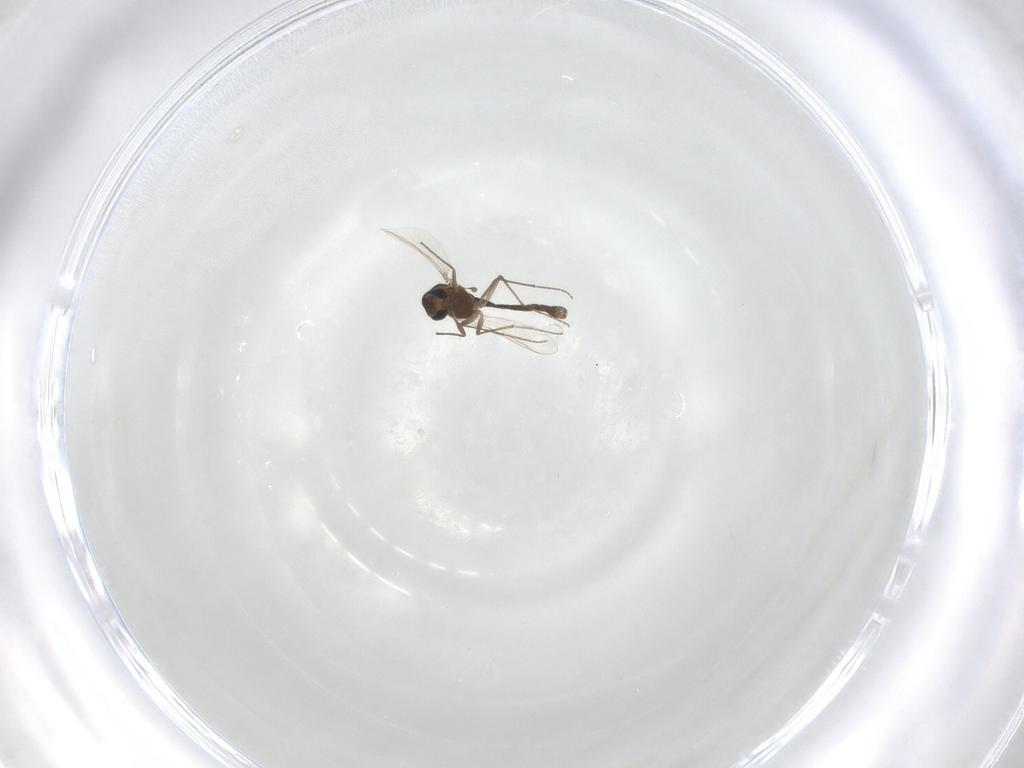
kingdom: Animalia
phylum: Arthropoda
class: Insecta
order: Diptera
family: Chironomidae
